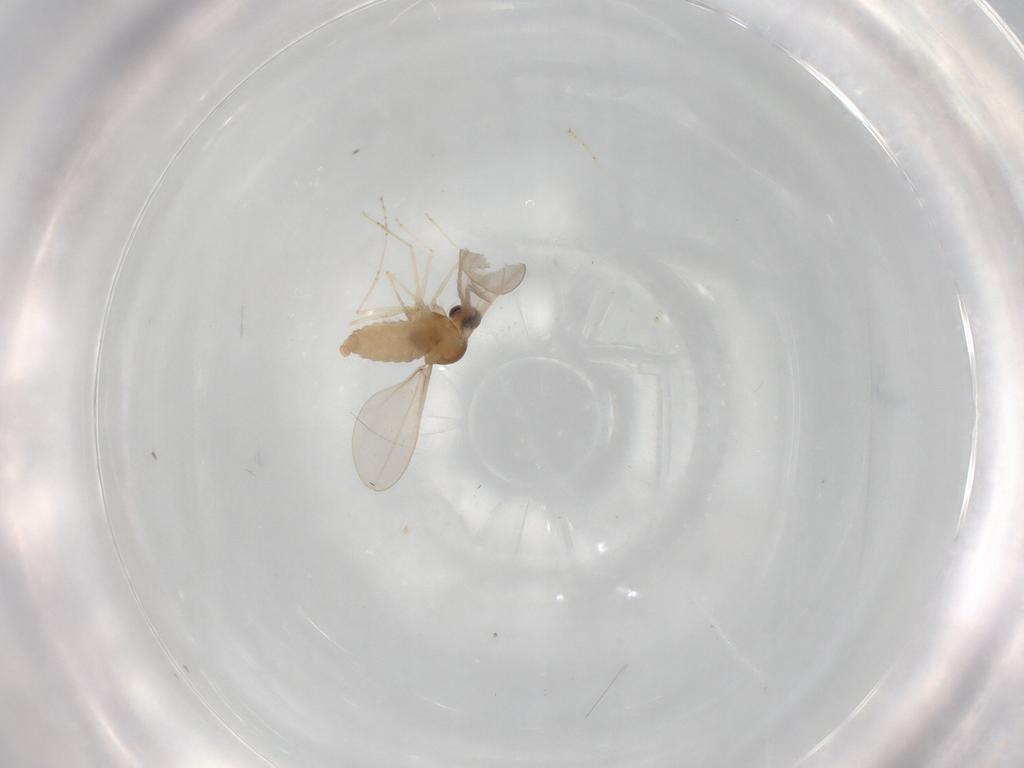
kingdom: Animalia
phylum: Arthropoda
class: Insecta
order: Diptera
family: Cecidomyiidae
